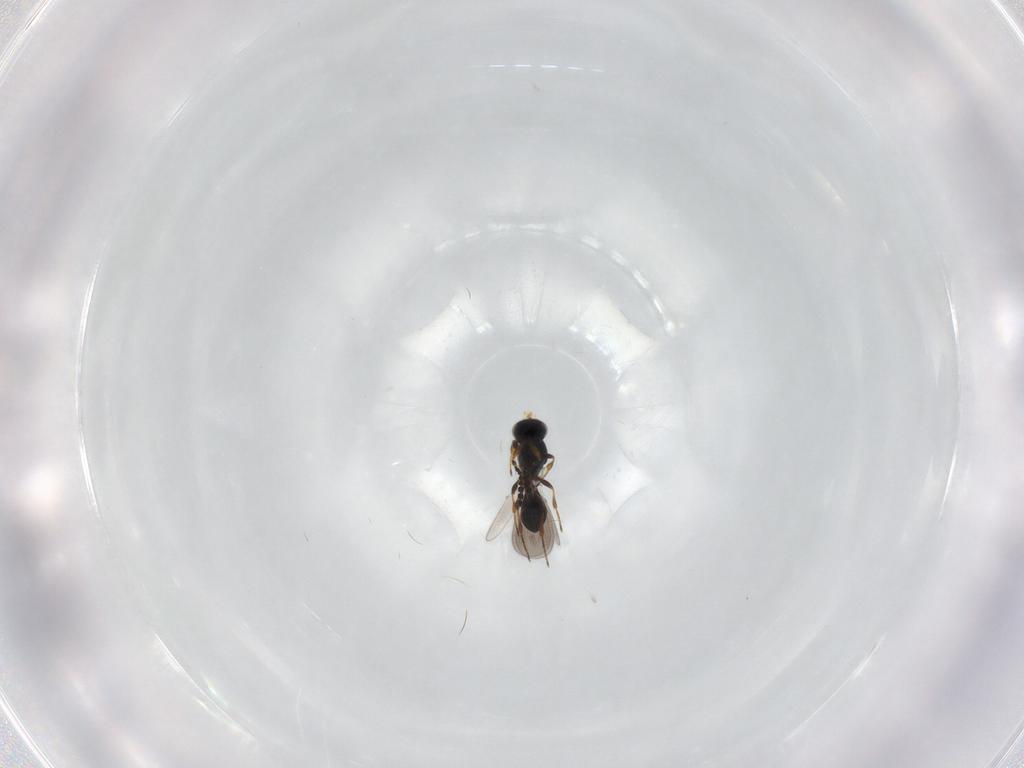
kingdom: Animalia
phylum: Arthropoda
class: Insecta
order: Hymenoptera
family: Platygastridae
